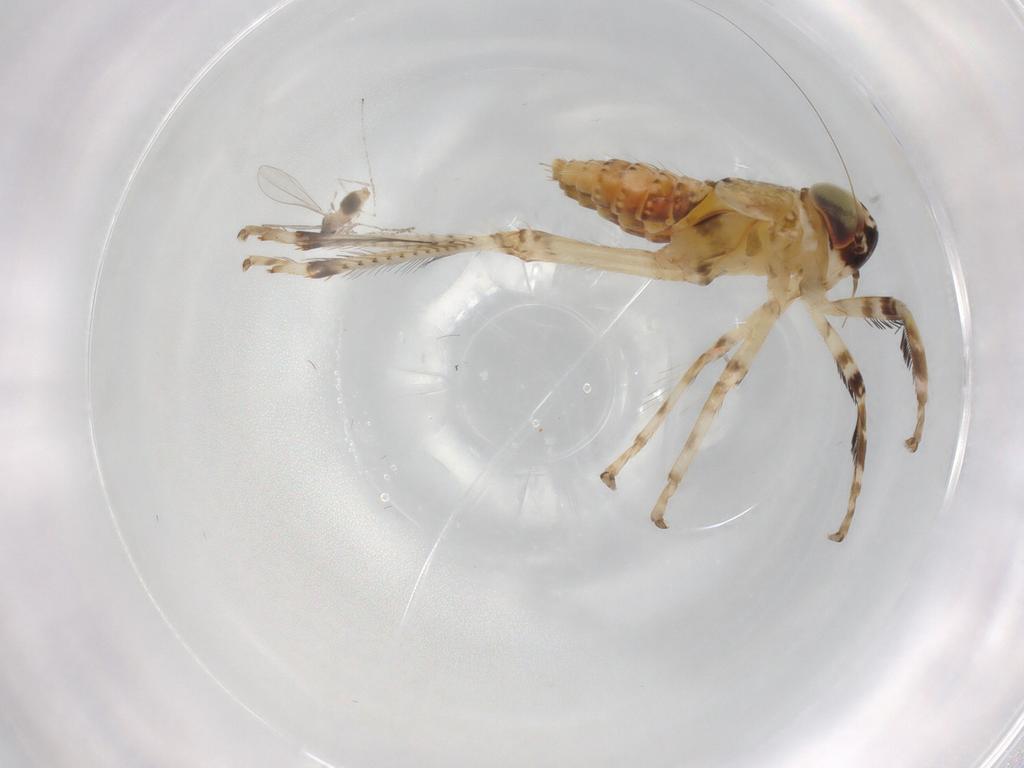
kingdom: Animalia
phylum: Arthropoda
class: Insecta
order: Hemiptera
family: Cicadellidae
